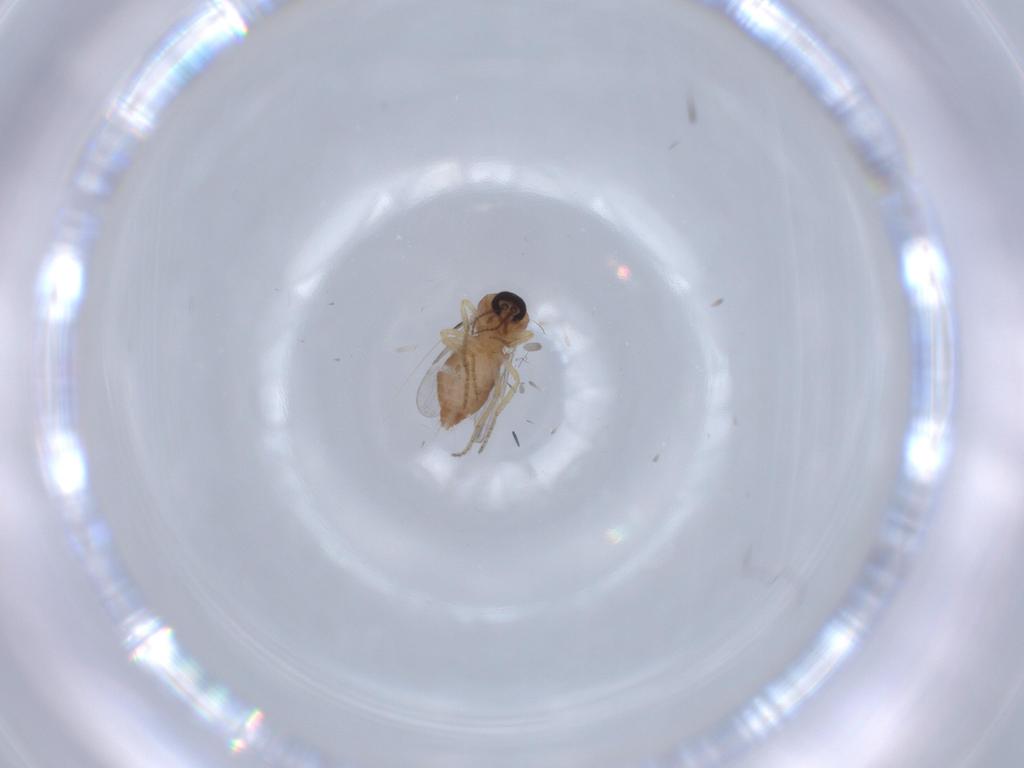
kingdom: Animalia
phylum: Arthropoda
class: Insecta
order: Diptera
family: Ceratopogonidae
